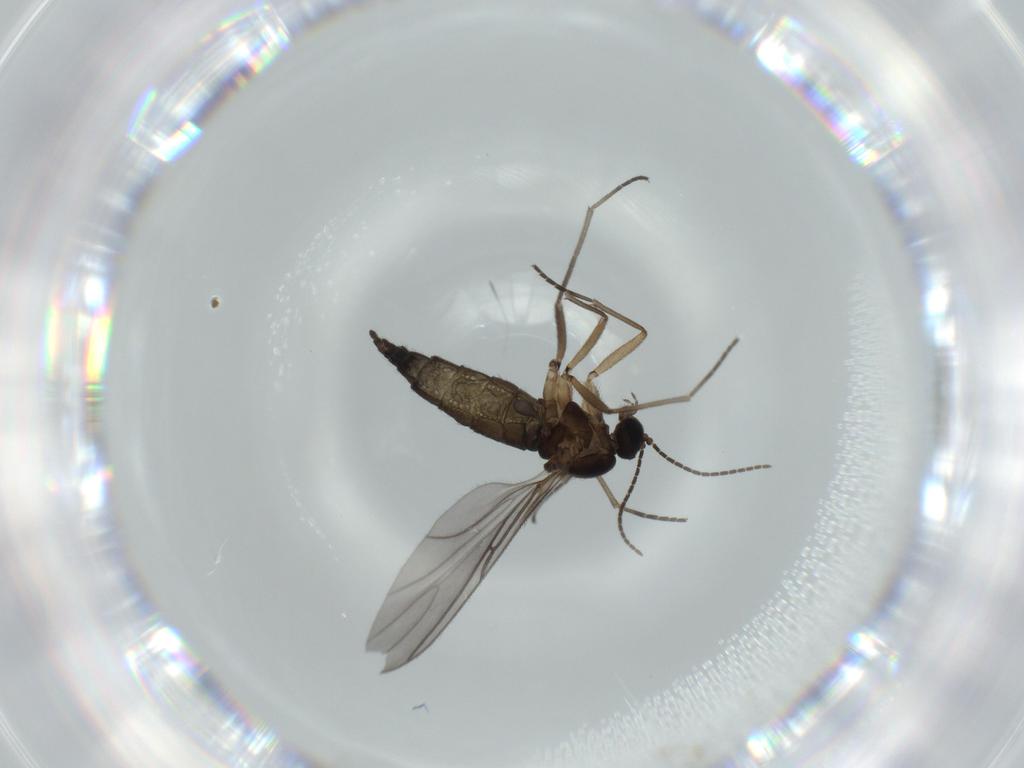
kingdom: Animalia
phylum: Arthropoda
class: Insecta
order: Diptera
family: Sciaridae
